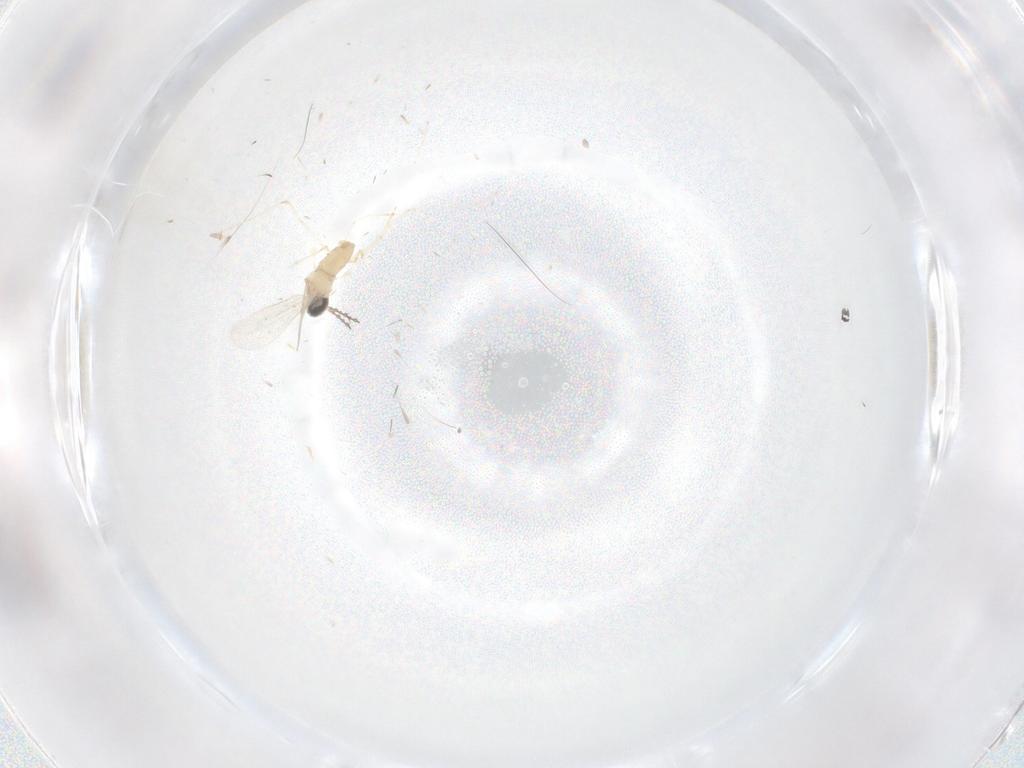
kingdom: Animalia
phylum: Arthropoda
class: Insecta
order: Diptera
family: Cecidomyiidae
